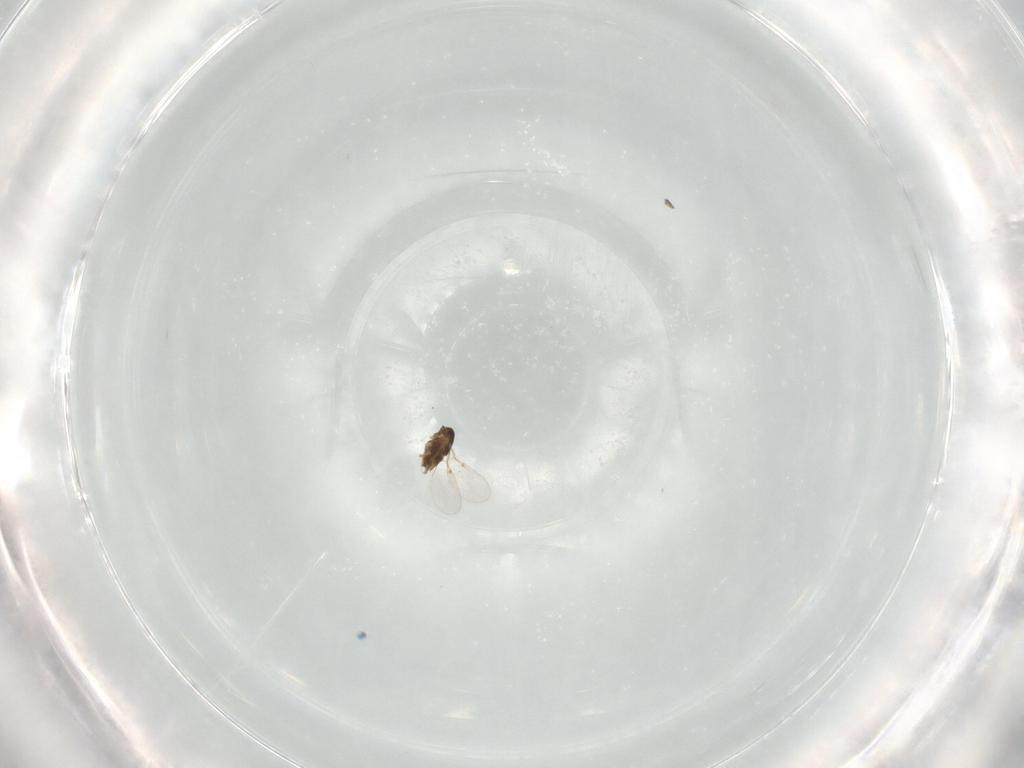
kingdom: Animalia
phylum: Arthropoda
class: Insecta
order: Hymenoptera
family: Encyrtidae
